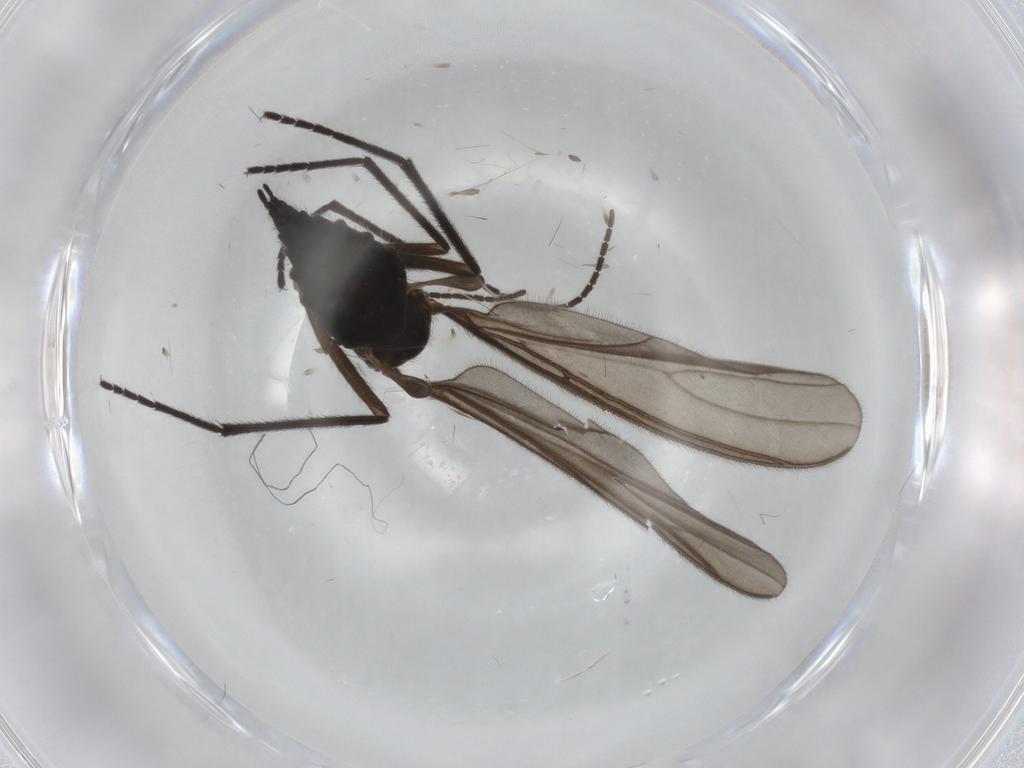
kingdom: Animalia
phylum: Arthropoda
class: Insecta
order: Diptera
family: Sciaridae
